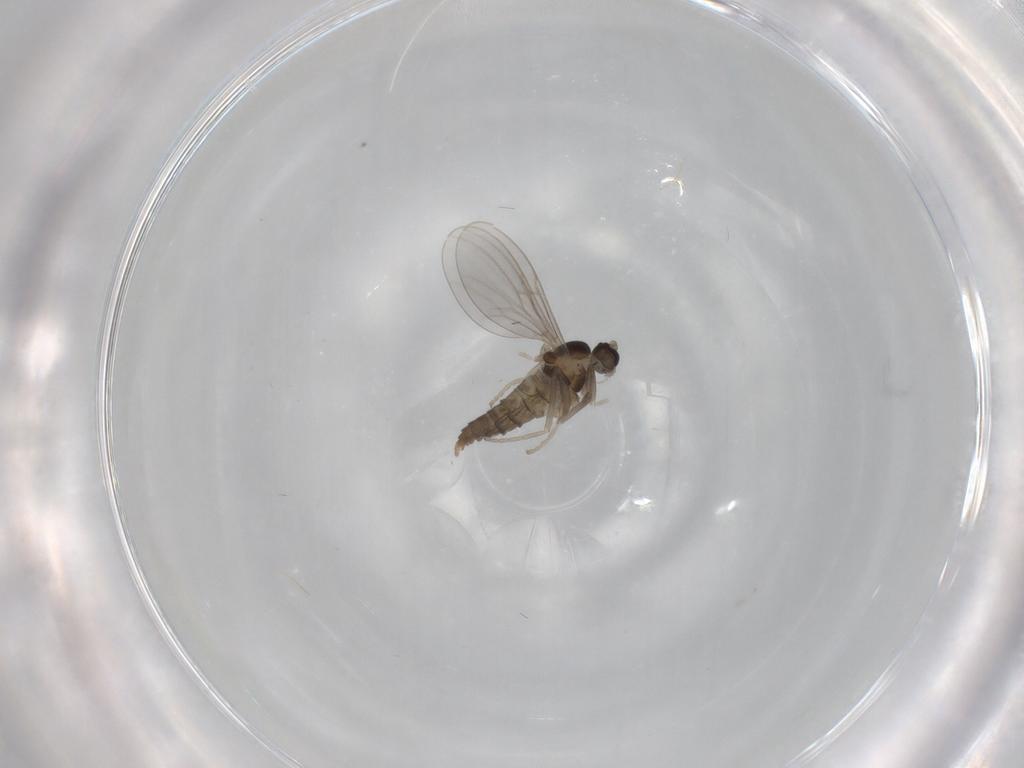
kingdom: Animalia
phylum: Arthropoda
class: Insecta
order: Diptera
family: Cecidomyiidae
